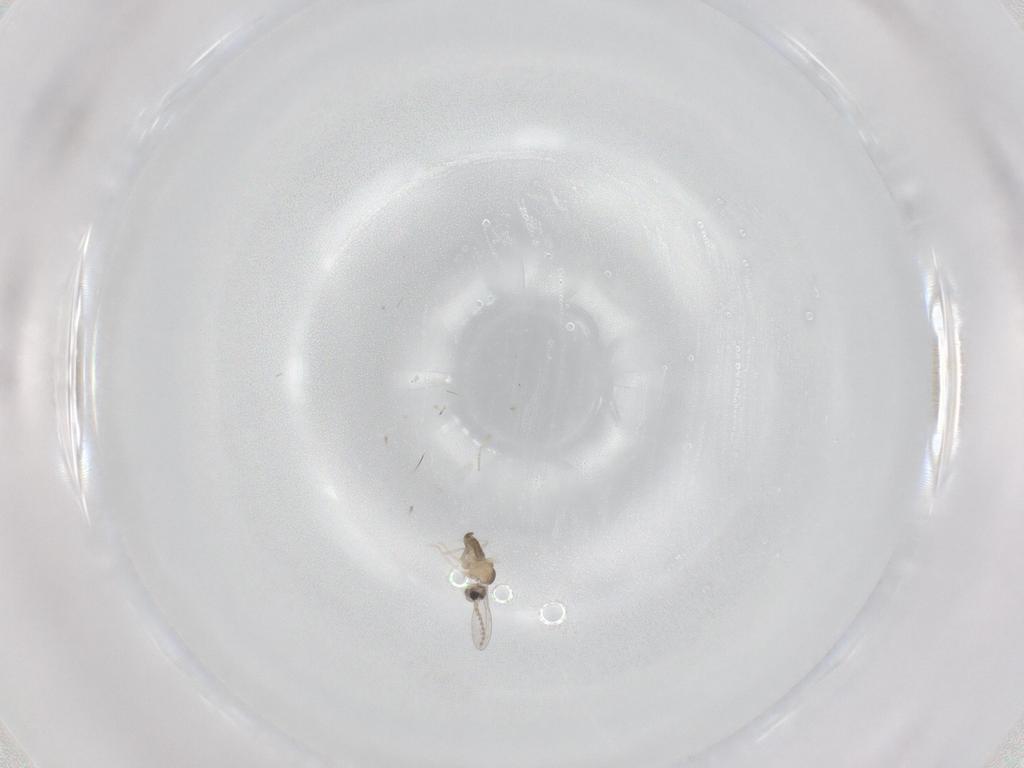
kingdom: Animalia
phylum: Arthropoda
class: Insecta
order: Diptera
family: Cecidomyiidae
